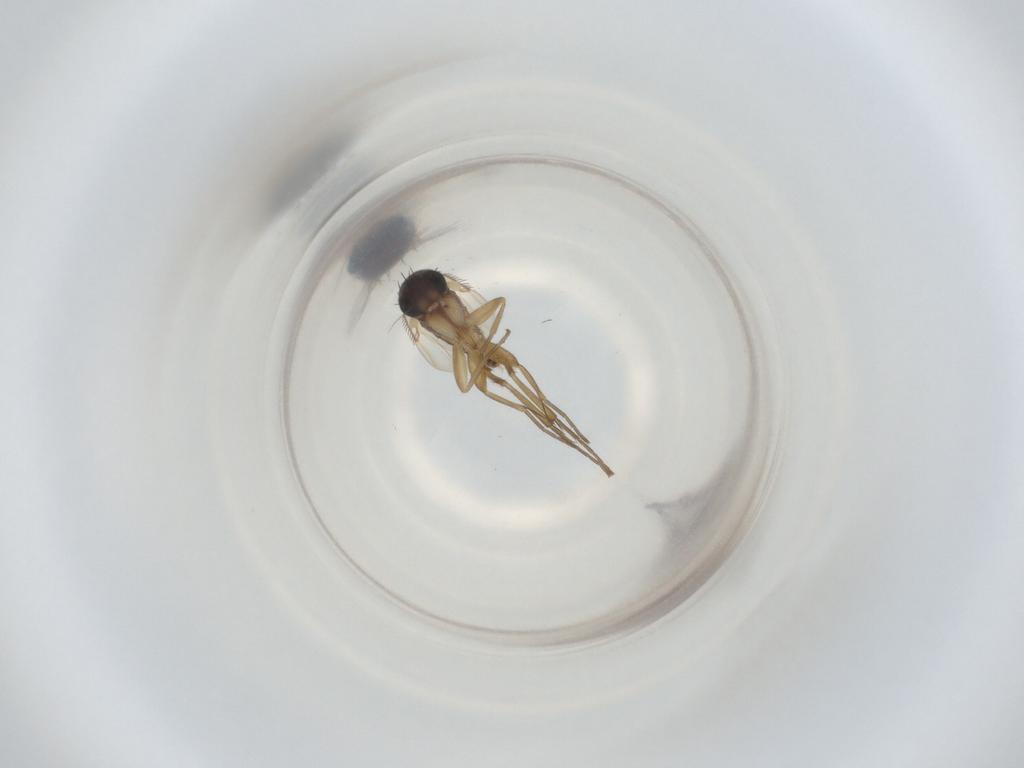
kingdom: Animalia
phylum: Arthropoda
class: Insecta
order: Diptera
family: Phoridae
